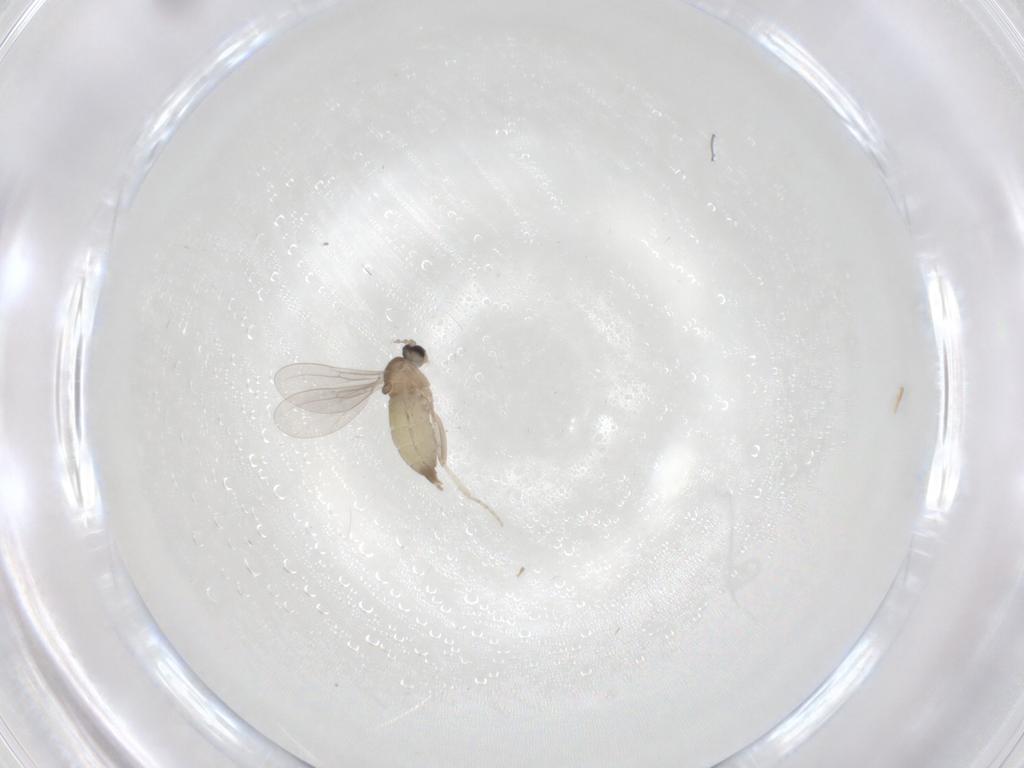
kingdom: Animalia
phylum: Arthropoda
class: Insecta
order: Diptera
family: Cecidomyiidae
